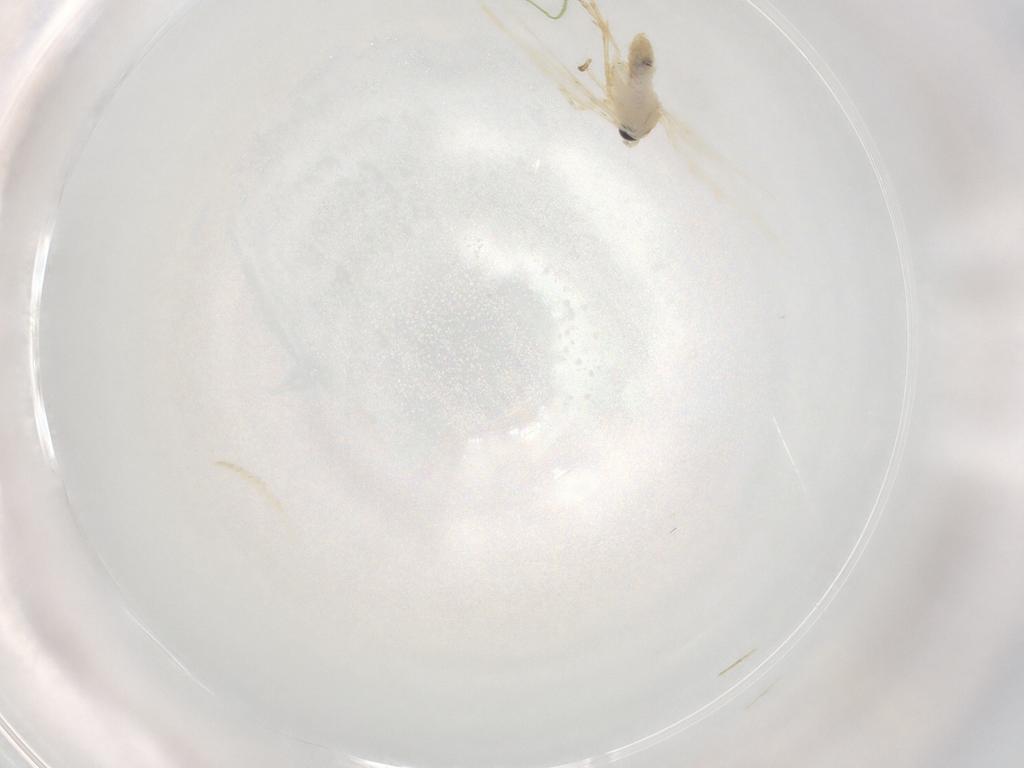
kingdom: Animalia
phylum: Arthropoda
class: Insecta
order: Lepidoptera
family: Nepticulidae
